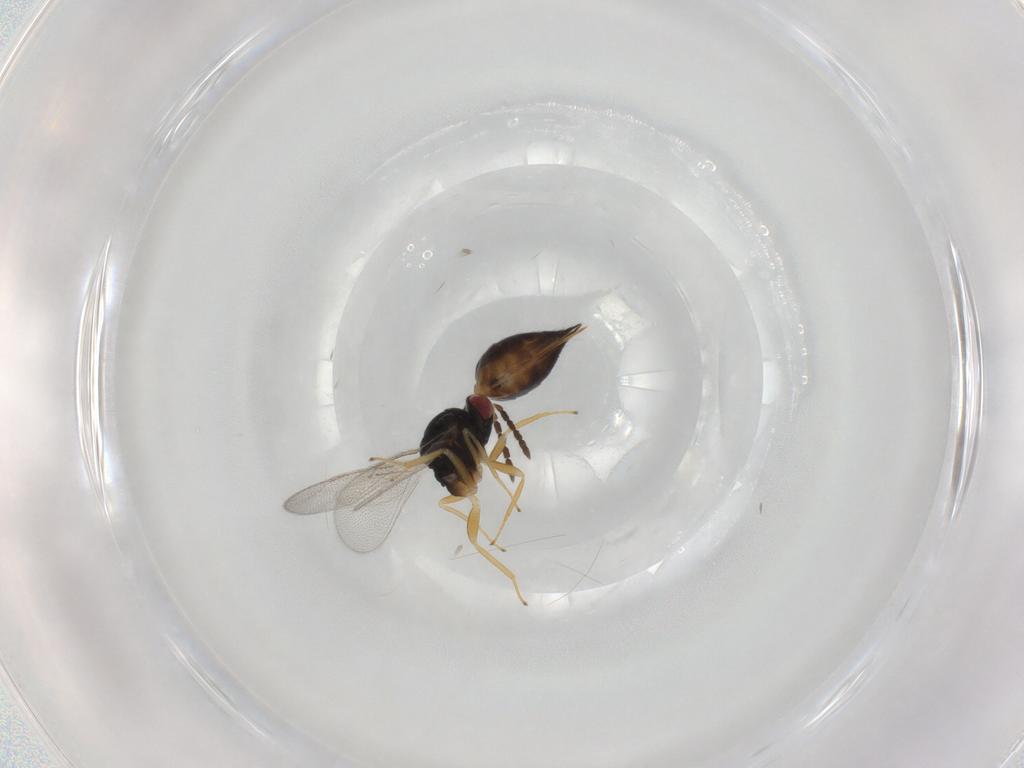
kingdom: Animalia
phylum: Arthropoda
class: Insecta
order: Hymenoptera
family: Eulophidae
